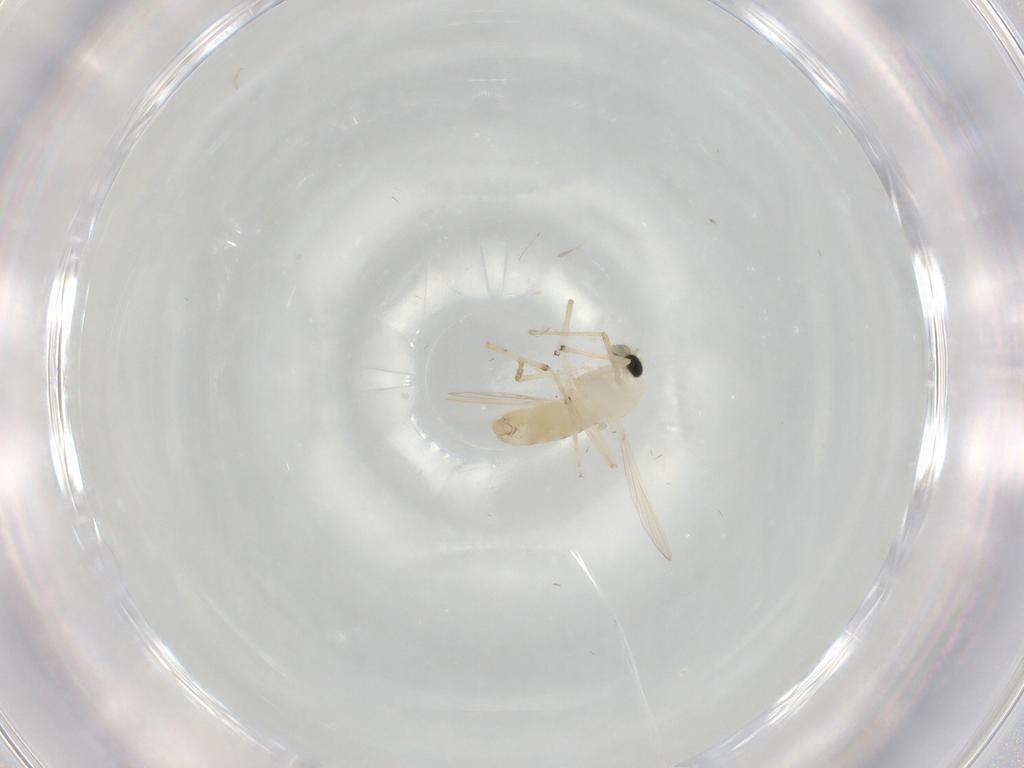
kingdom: Animalia
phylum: Arthropoda
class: Insecta
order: Diptera
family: Chironomidae
